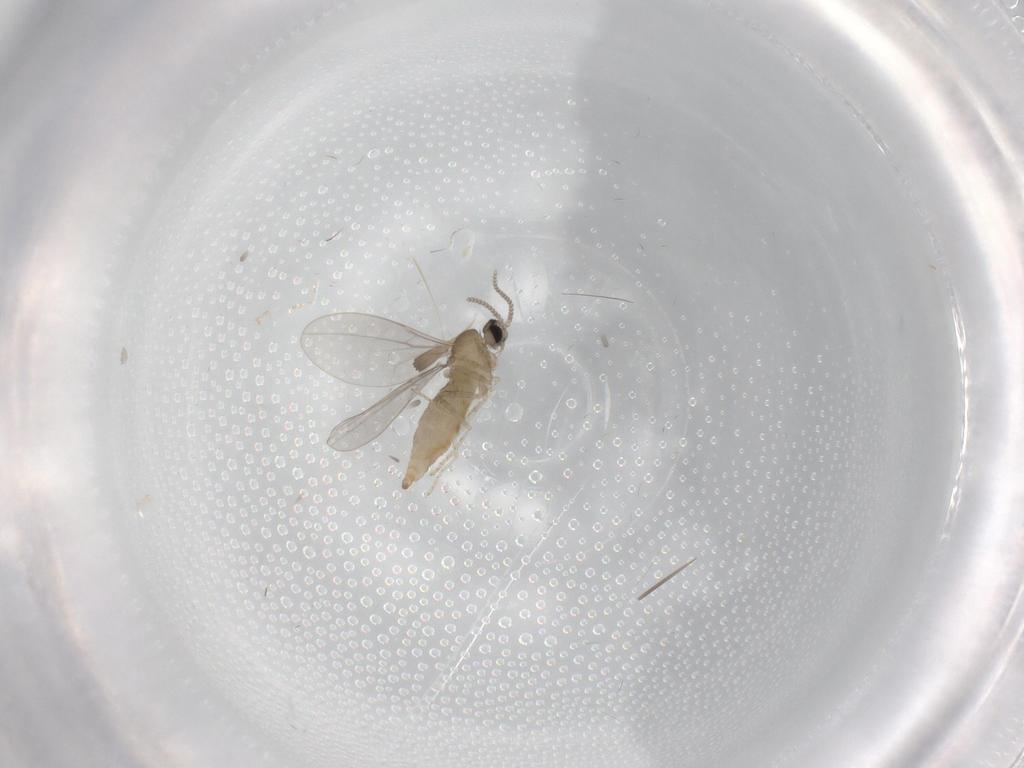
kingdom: Animalia
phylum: Arthropoda
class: Insecta
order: Diptera
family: Cecidomyiidae
